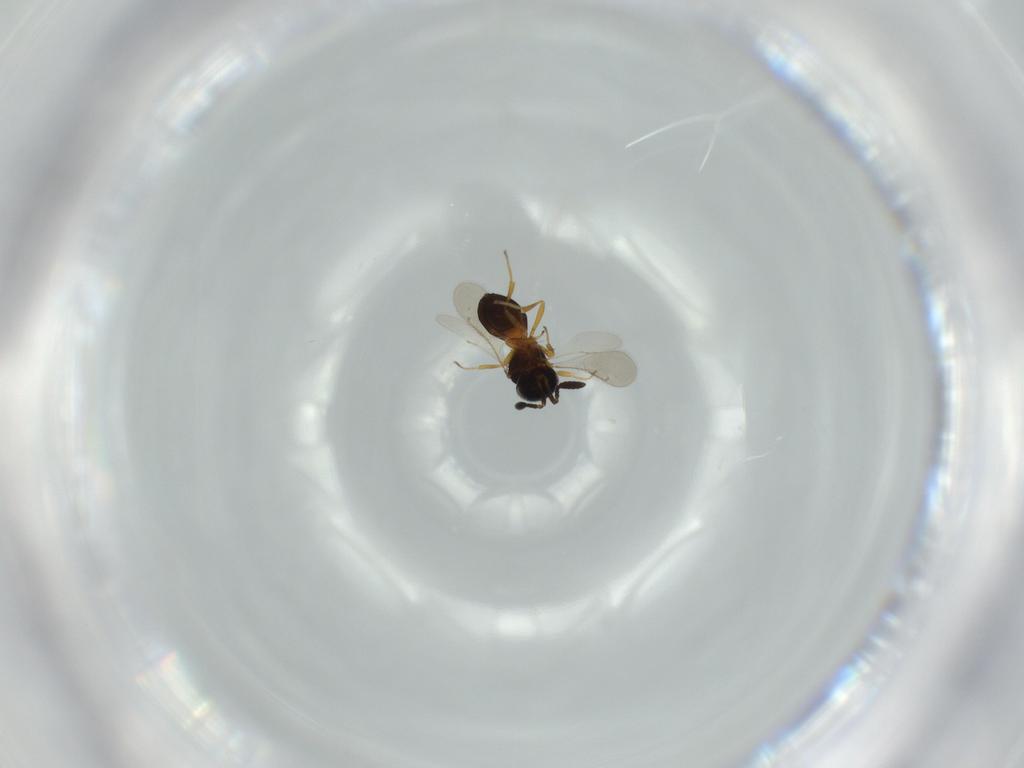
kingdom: Animalia
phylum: Arthropoda
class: Insecta
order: Hymenoptera
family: Scelionidae
